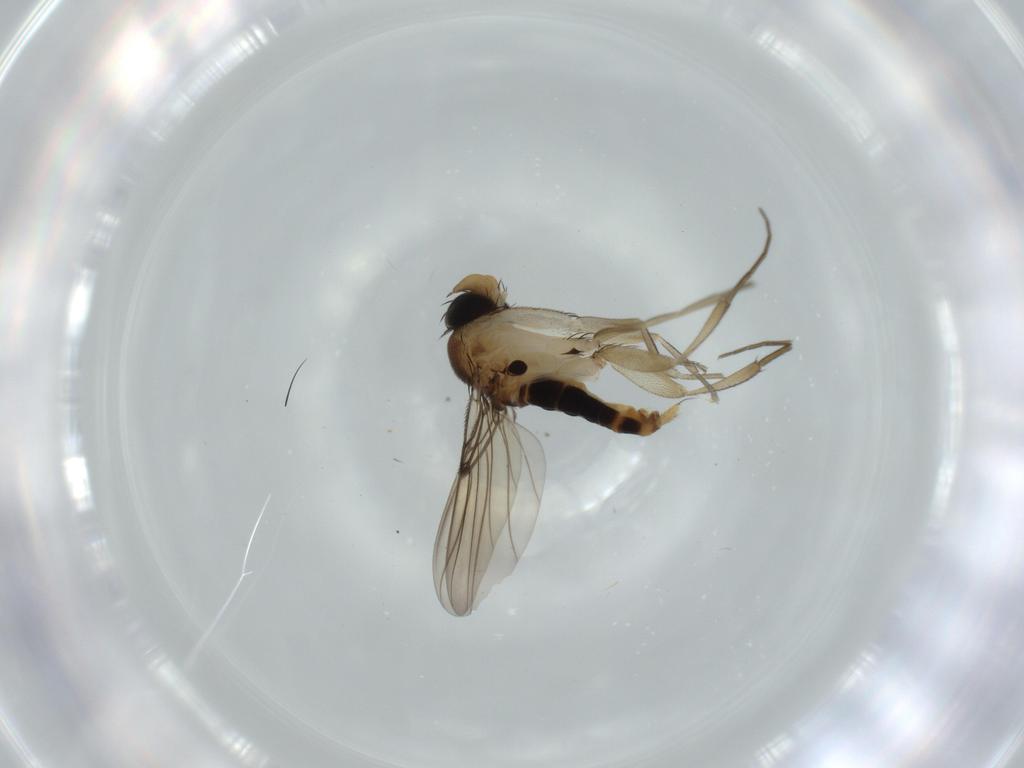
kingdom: Animalia
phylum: Arthropoda
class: Insecta
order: Diptera
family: Phoridae
